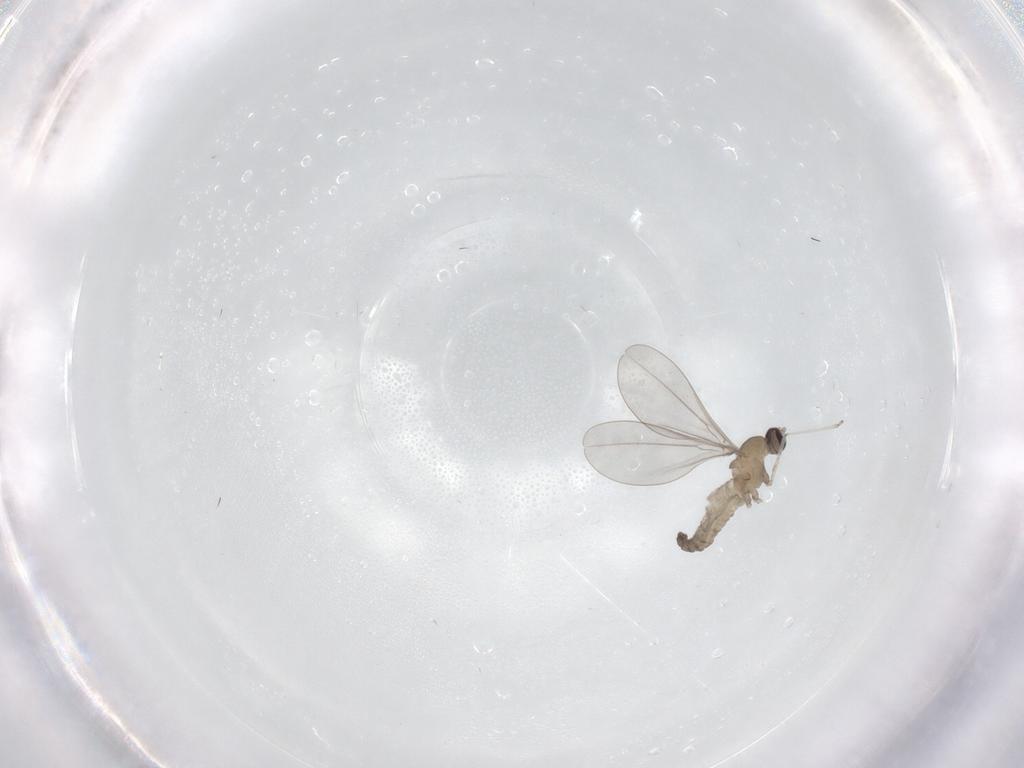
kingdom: Animalia
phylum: Arthropoda
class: Insecta
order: Diptera
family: Cecidomyiidae
